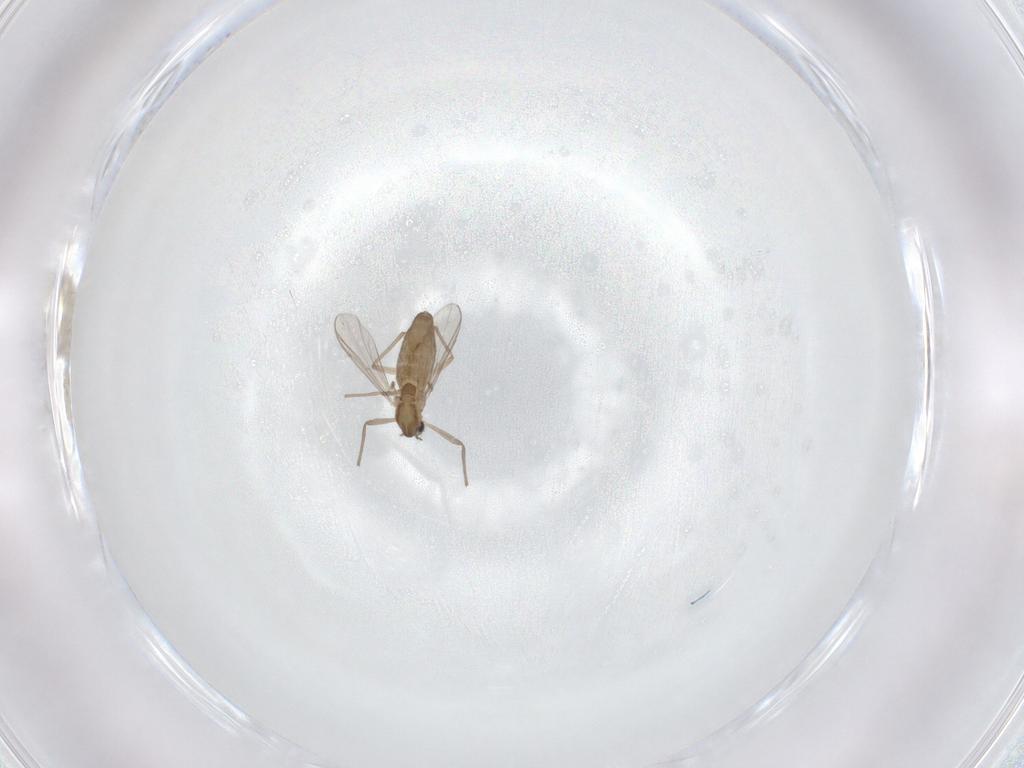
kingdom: Animalia
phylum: Arthropoda
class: Insecta
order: Diptera
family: Chironomidae
